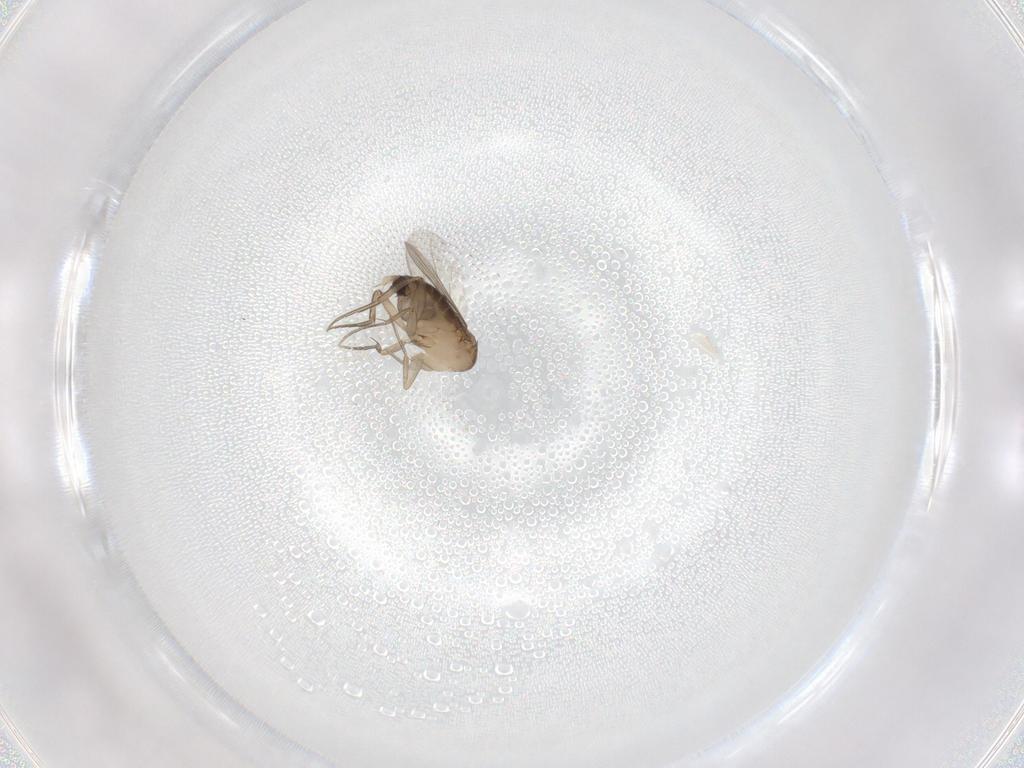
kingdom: Animalia
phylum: Arthropoda
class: Insecta
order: Diptera
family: Phoridae
